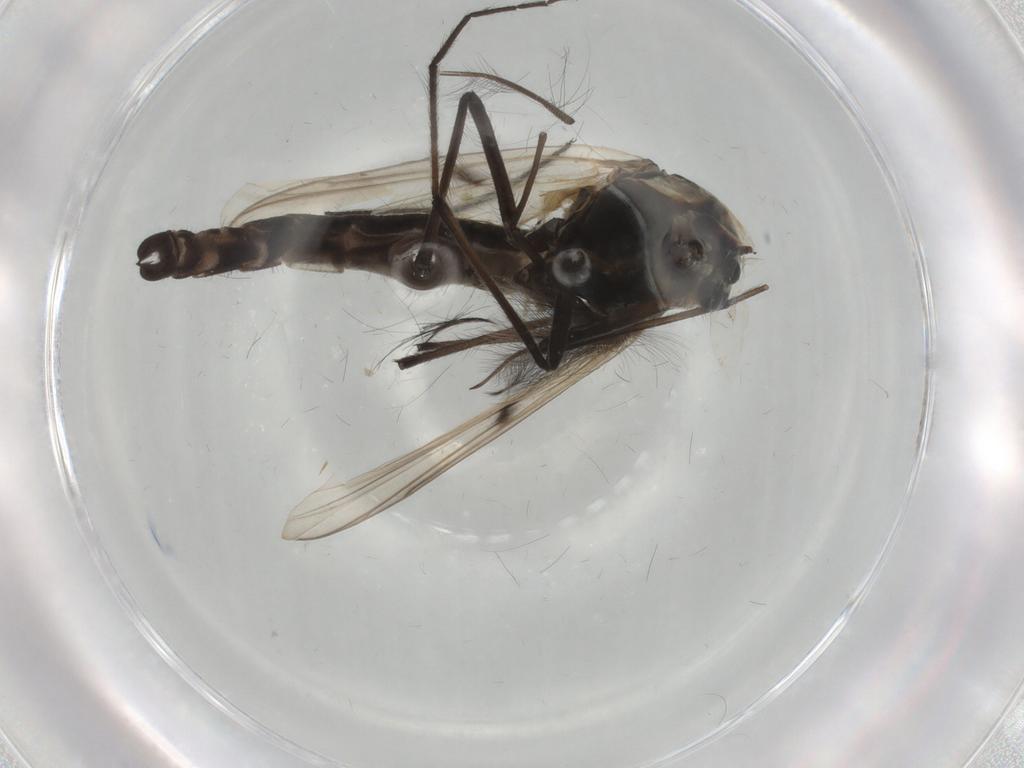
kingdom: Animalia
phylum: Arthropoda
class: Insecta
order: Diptera
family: Chironomidae
